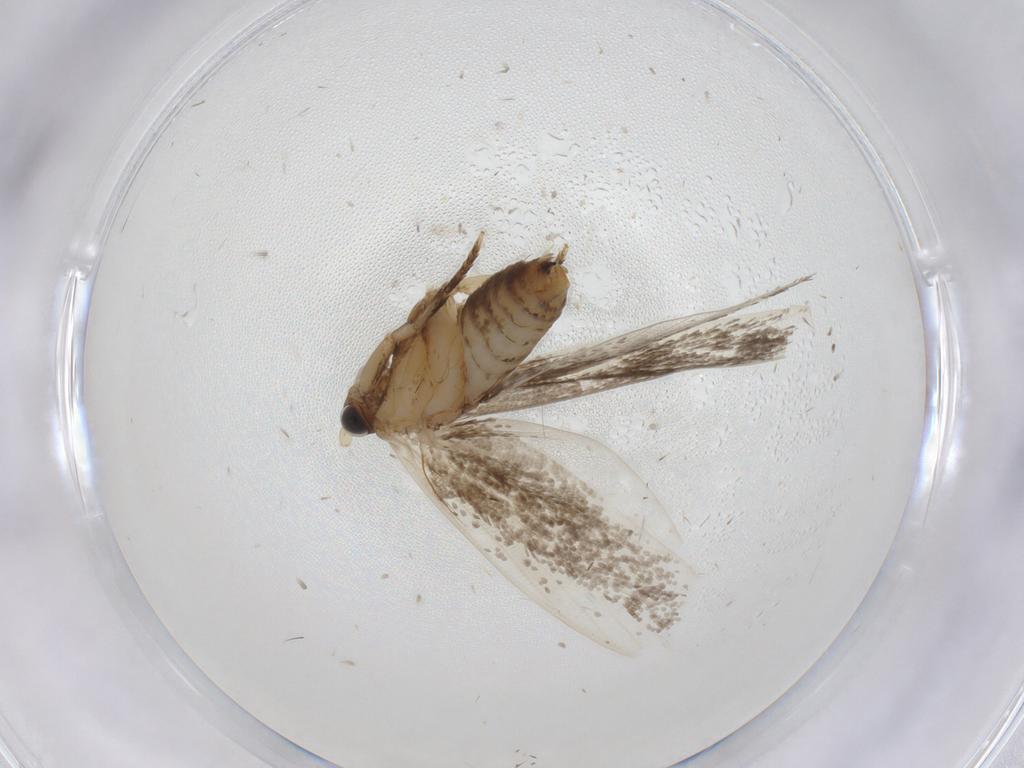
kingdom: Animalia
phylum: Arthropoda
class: Insecta
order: Lepidoptera
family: Tineidae
